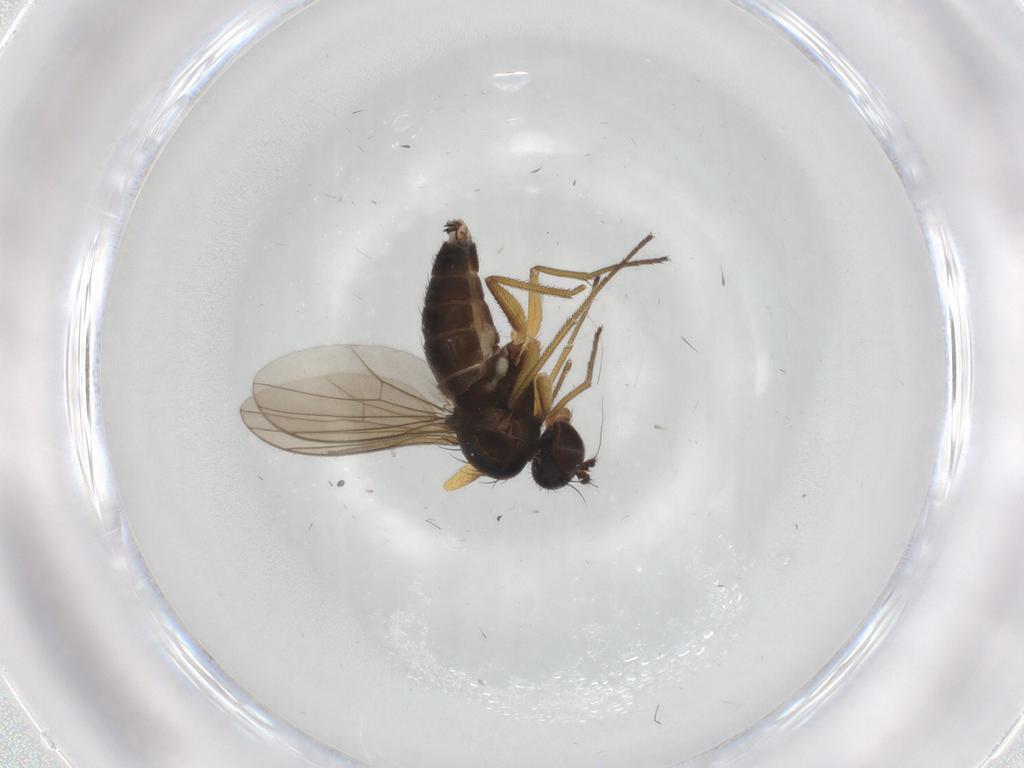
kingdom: Animalia
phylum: Arthropoda
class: Insecta
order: Diptera
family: Dolichopodidae
